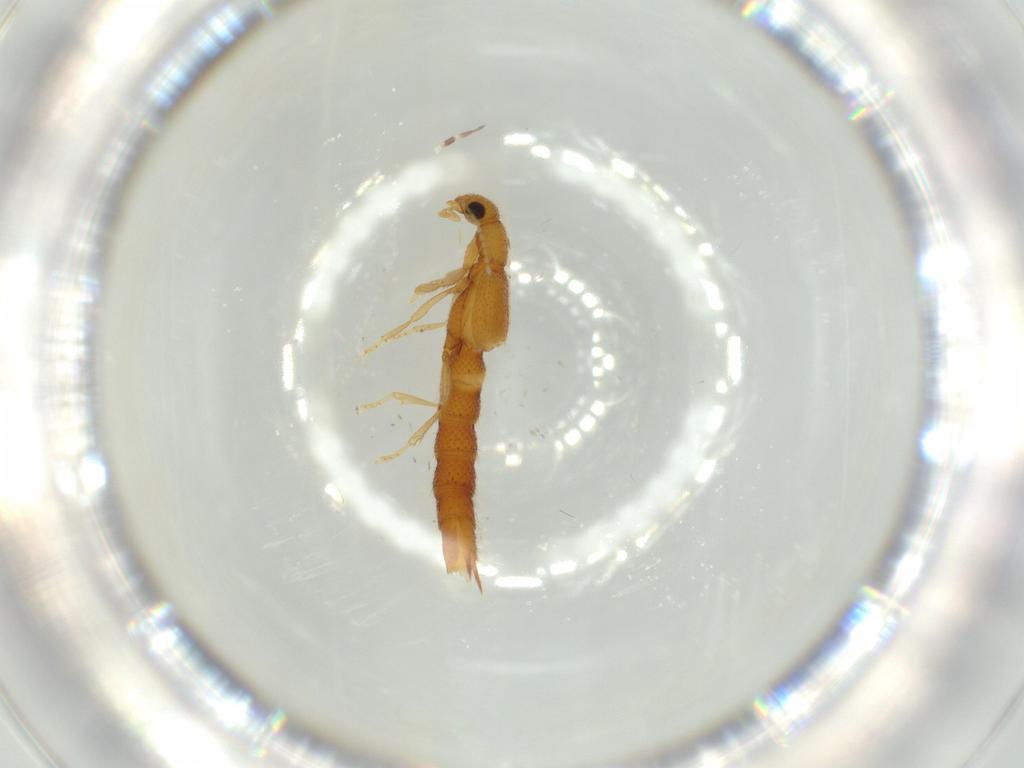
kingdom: Animalia
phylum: Arthropoda
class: Insecta
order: Coleoptera
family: Staphylinidae
